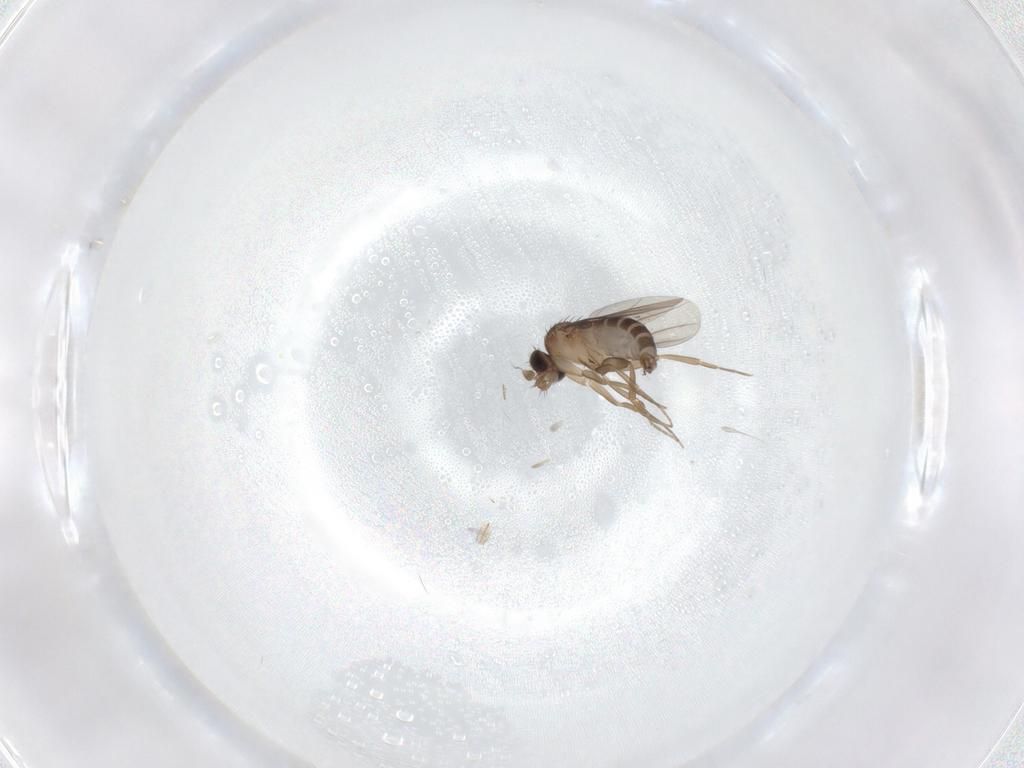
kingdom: Animalia
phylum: Arthropoda
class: Insecta
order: Diptera
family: Phoridae
